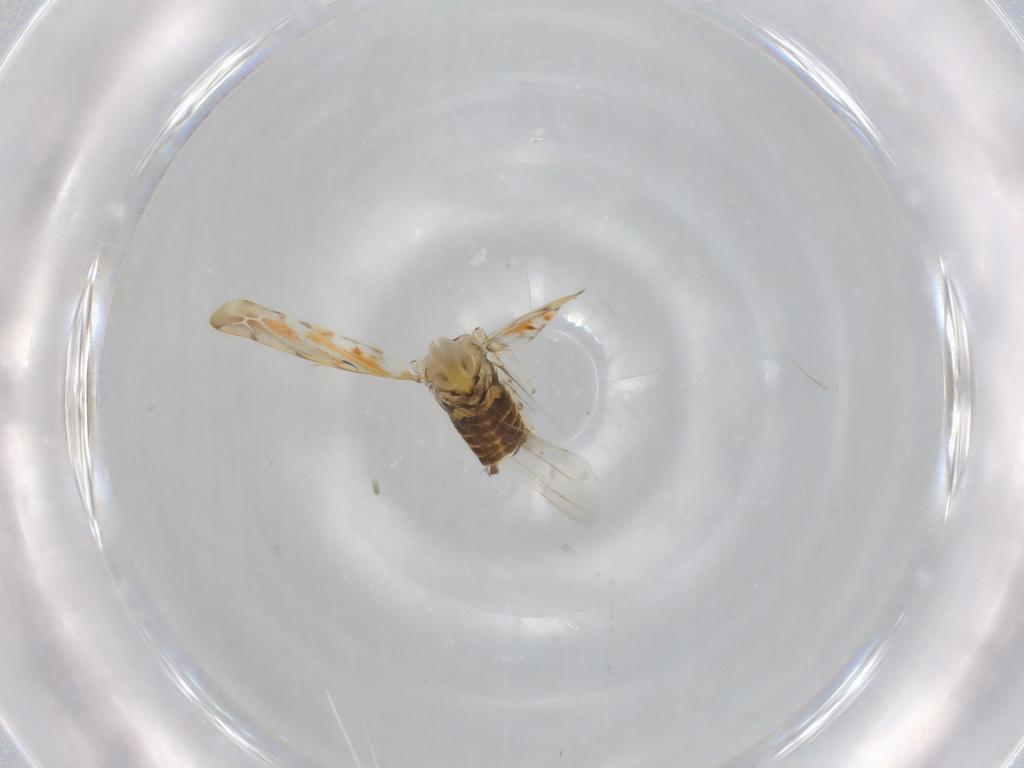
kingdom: Animalia
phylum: Arthropoda
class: Insecta
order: Hemiptera
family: Cicadellidae
